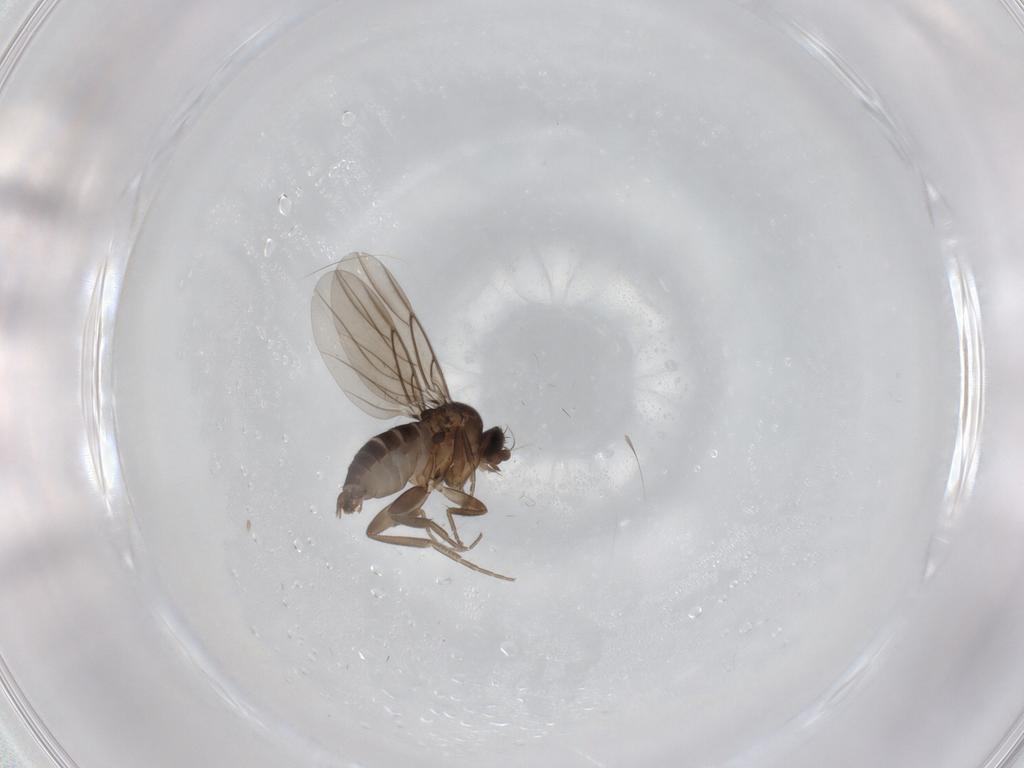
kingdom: Animalia
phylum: Arthropoda
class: Insecta
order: Diptera
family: Phoridae
